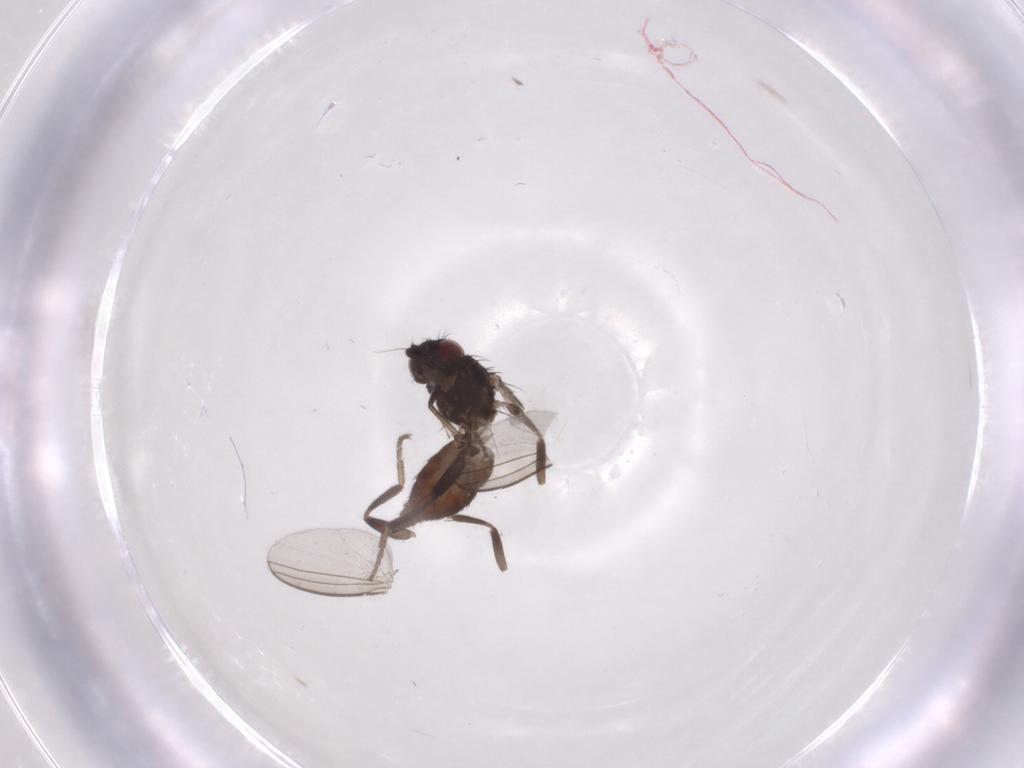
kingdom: Animalia
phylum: Arthropoda
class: Insecta
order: Diptera
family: Milichiidae
